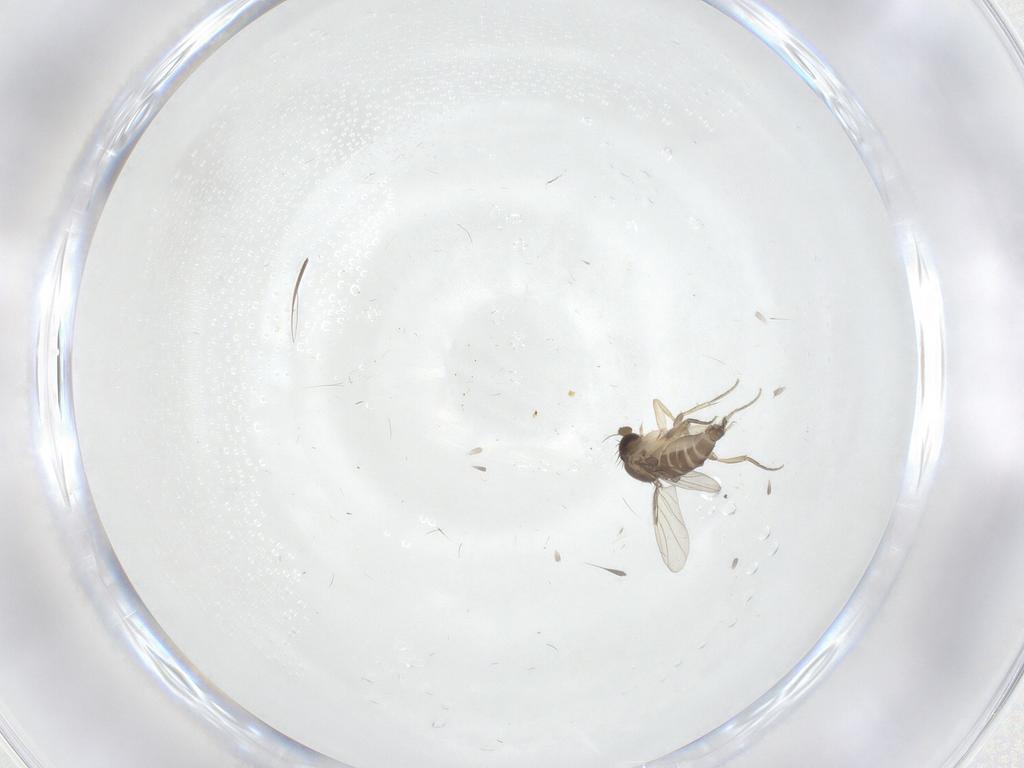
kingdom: Animalia
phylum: Arthropoda
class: Insecta
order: Diptera
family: Phoridae
